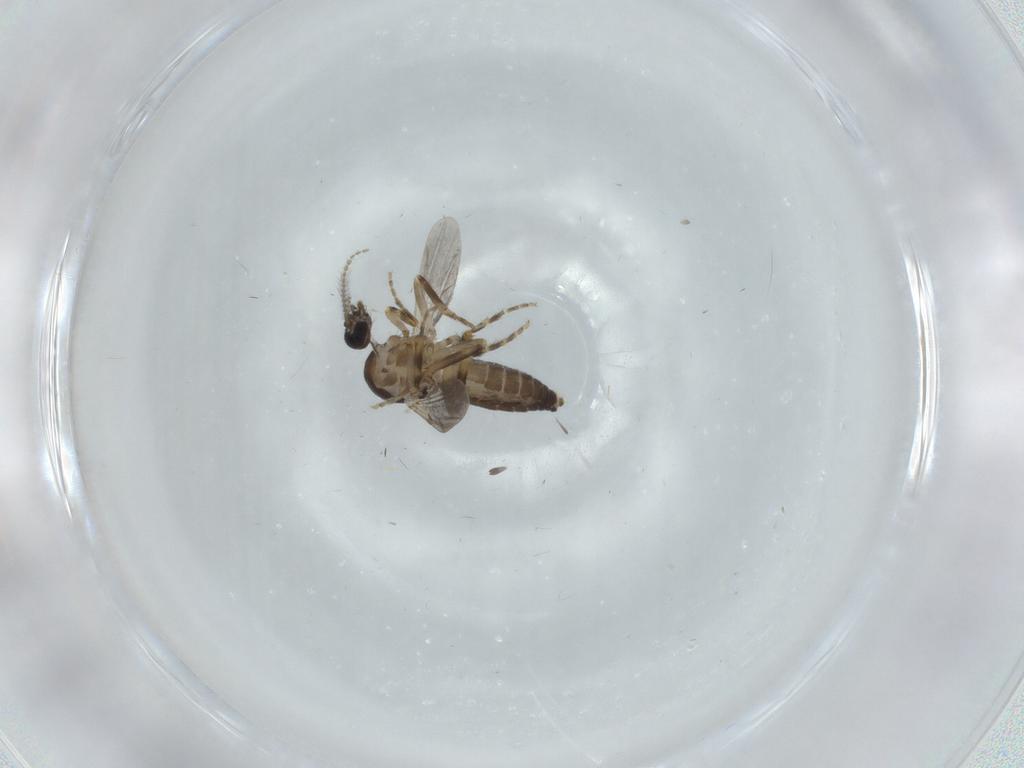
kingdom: Animalia
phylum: Arthropoda
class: Insecta
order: Diptera
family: Ceratopogonidae
